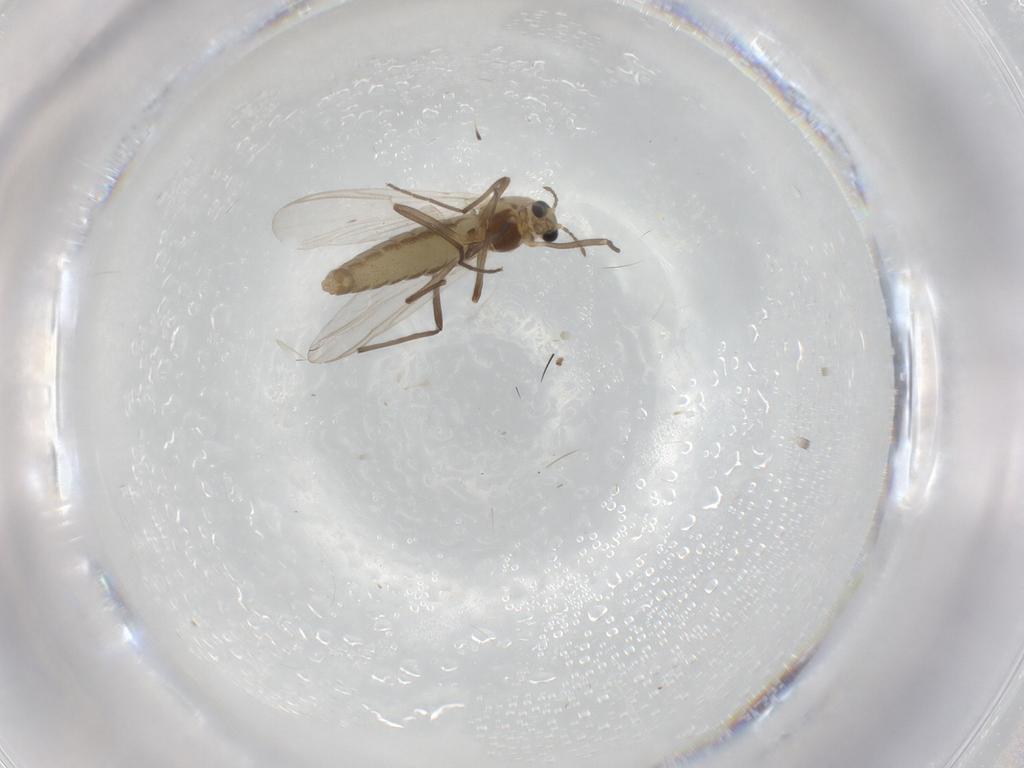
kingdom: Animalia
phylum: Arthropoda
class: Insecta
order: Diptera
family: Chironomidae
